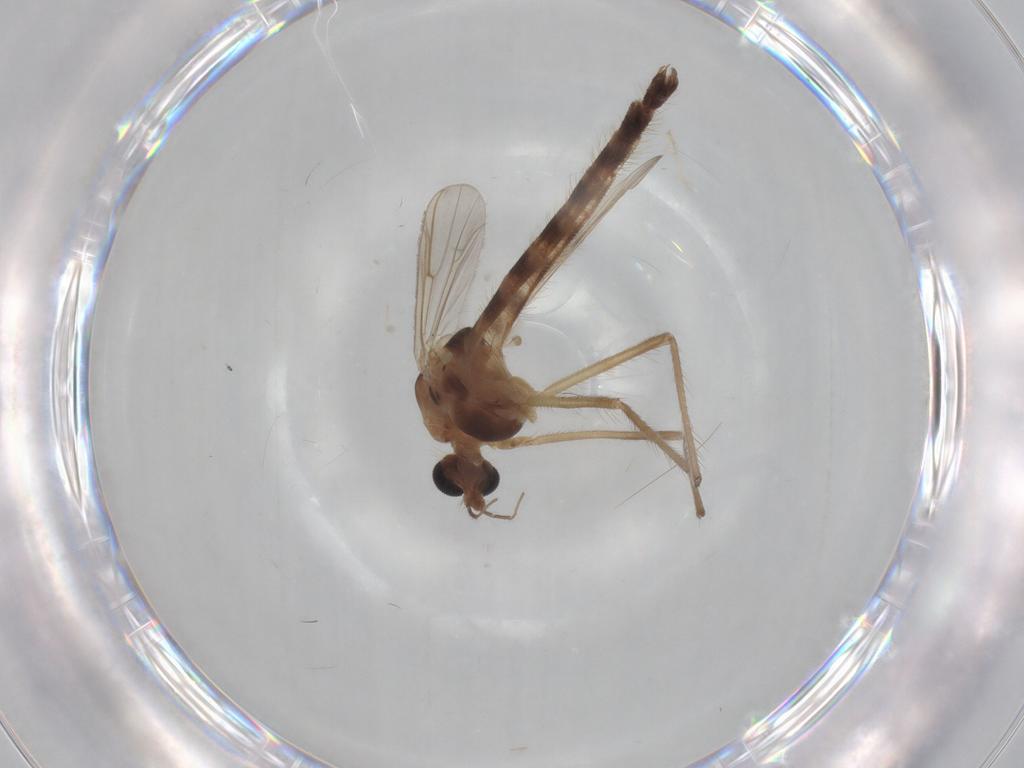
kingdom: Animalia
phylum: Arthropoda
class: Insecta
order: Diptera
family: Chironomidae
